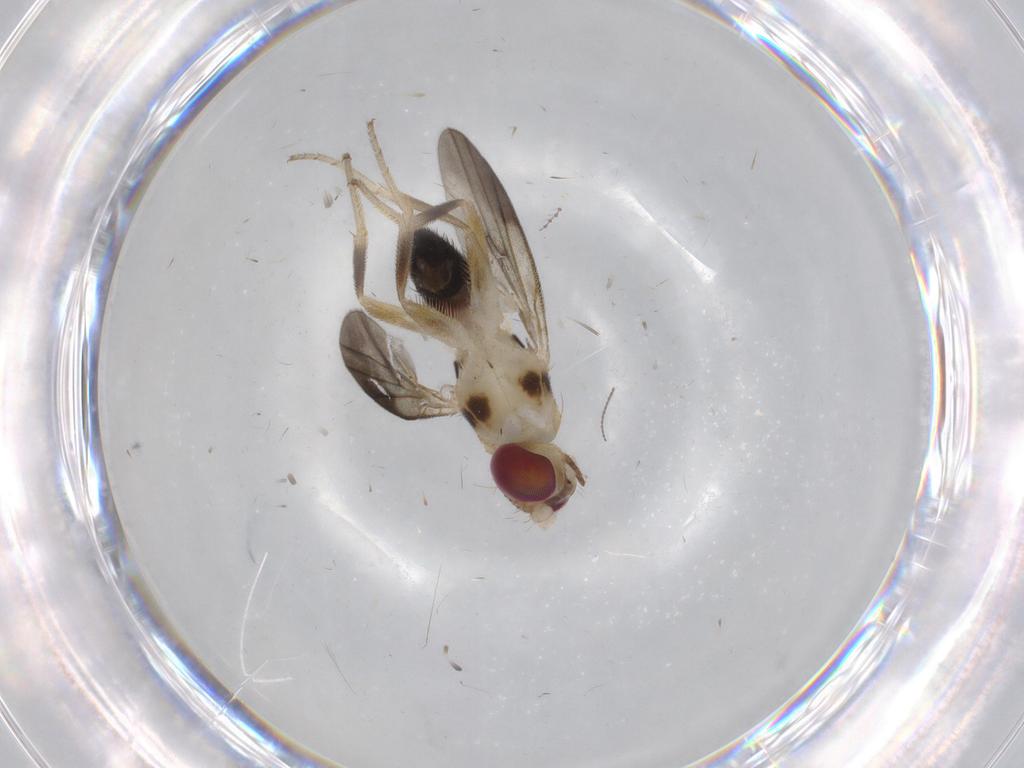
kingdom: Animalia
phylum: Arthropoda
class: Insecta
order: Diptera
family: Clusiidae
